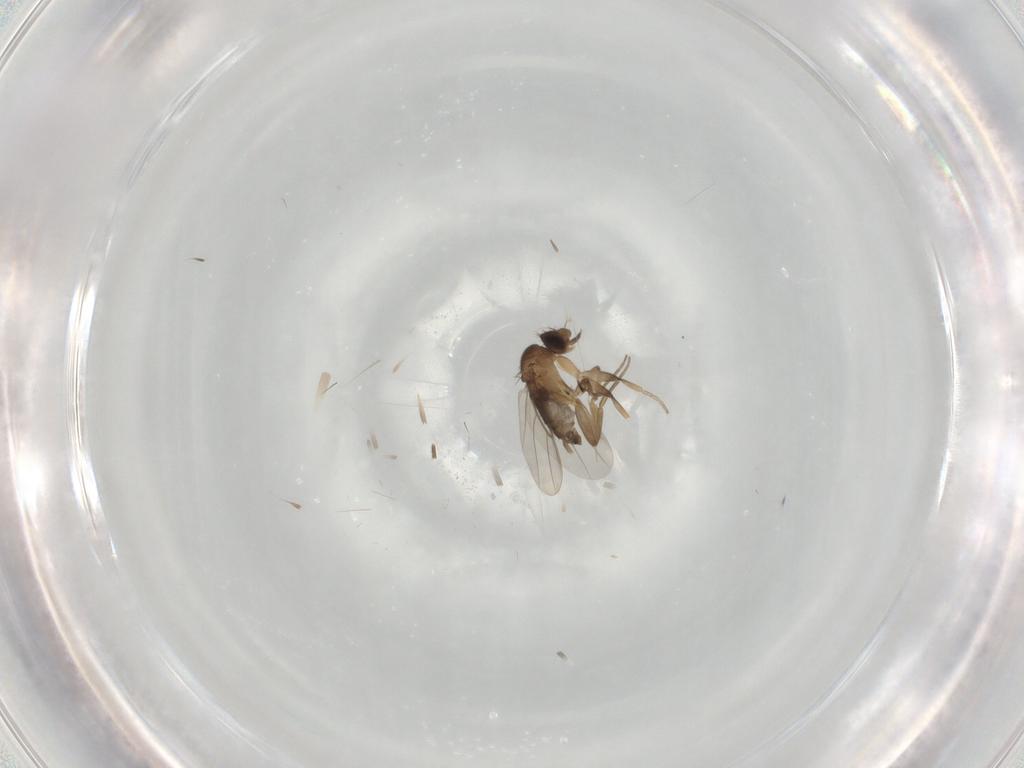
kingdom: Animalia
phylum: Arthropoda
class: Insecta
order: Diptera
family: Phoridae
